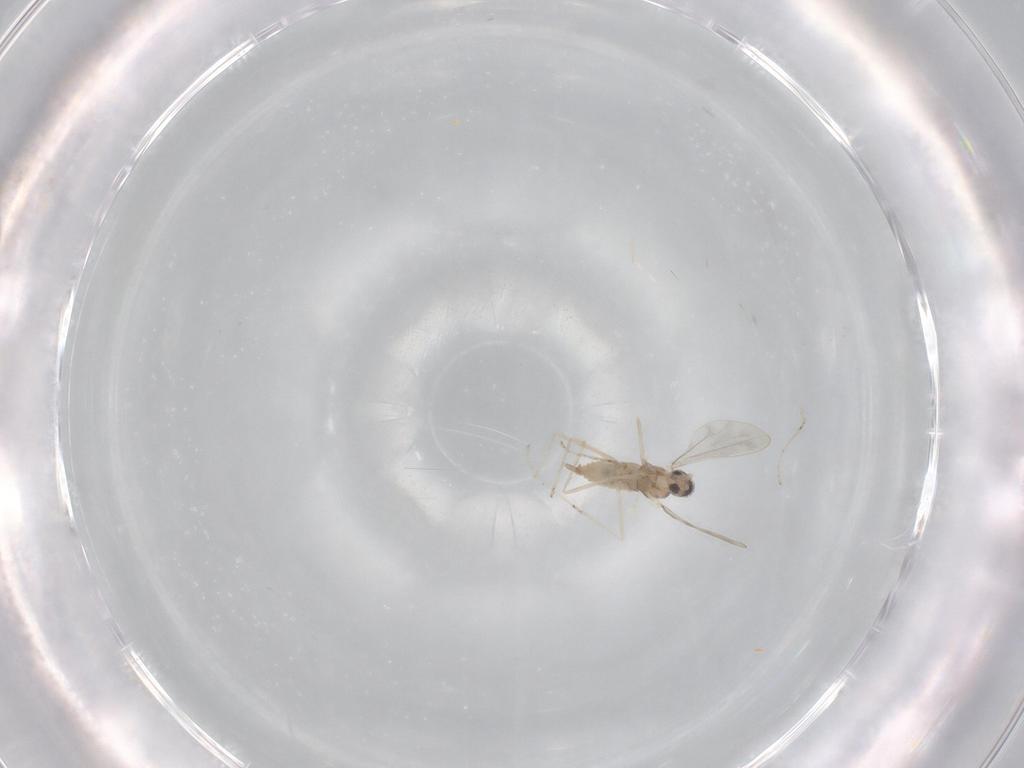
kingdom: Animalia
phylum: Arthropoda
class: Insecta
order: Diptera
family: Cecidomyiidae
